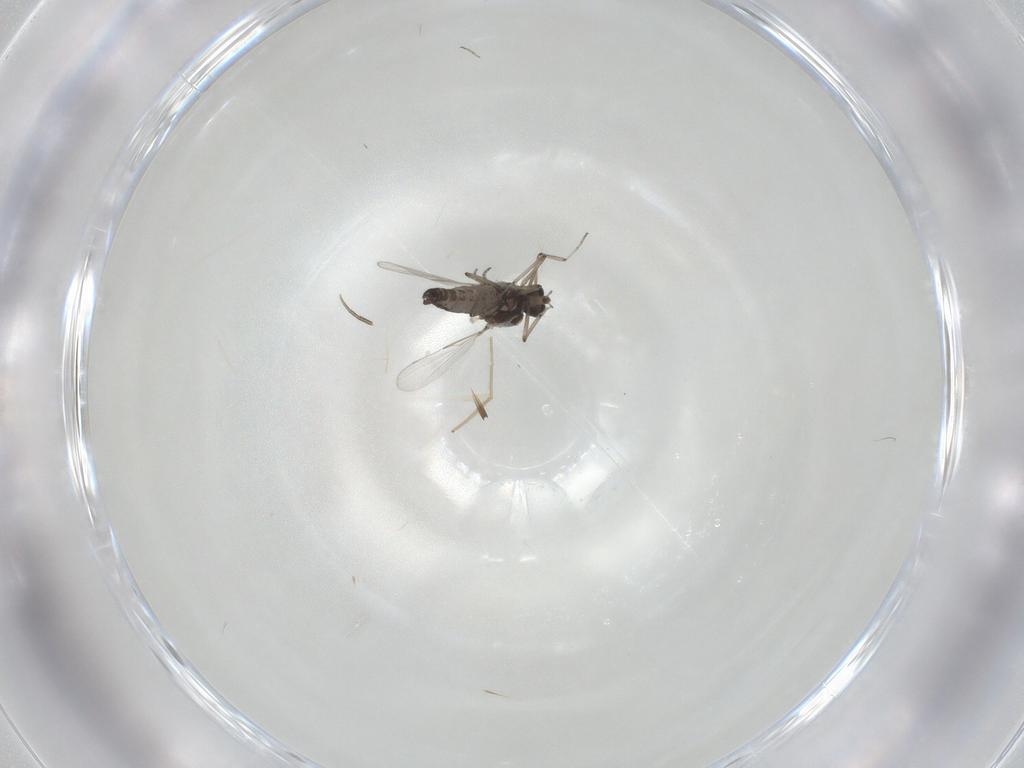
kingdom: Animalia
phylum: Arthropoda
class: Insecta
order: Diptera
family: Ceratopogonidae
